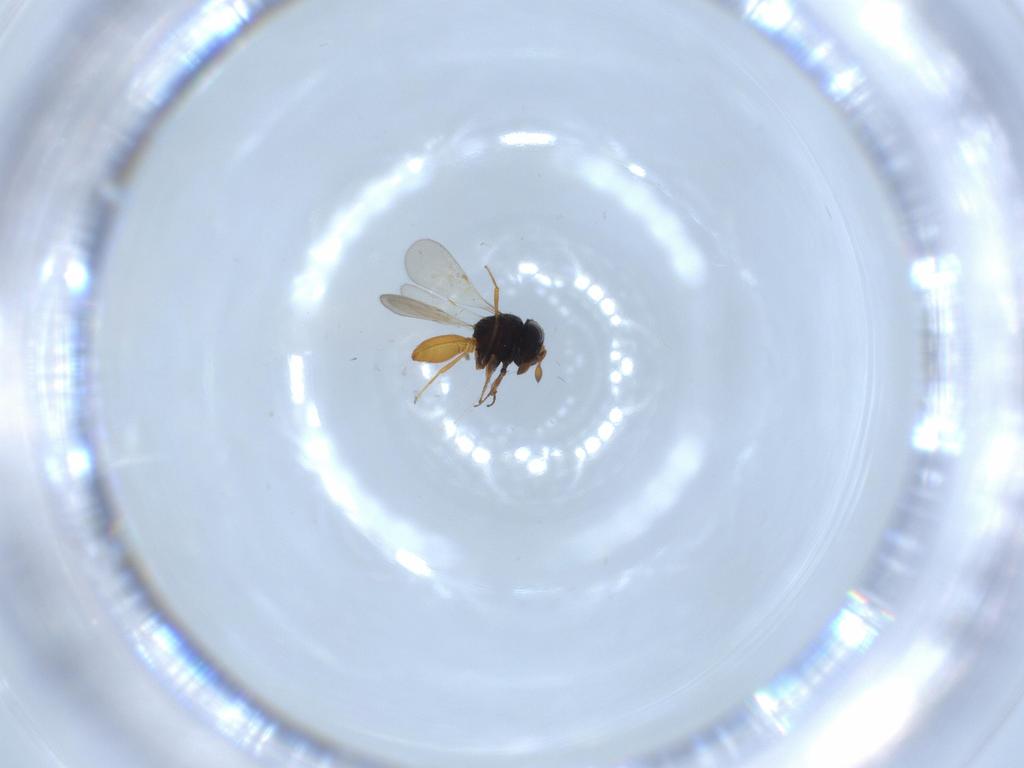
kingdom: Animalia
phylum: Arthropoda
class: Insecta
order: Hymenoptera
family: Scelionidae
